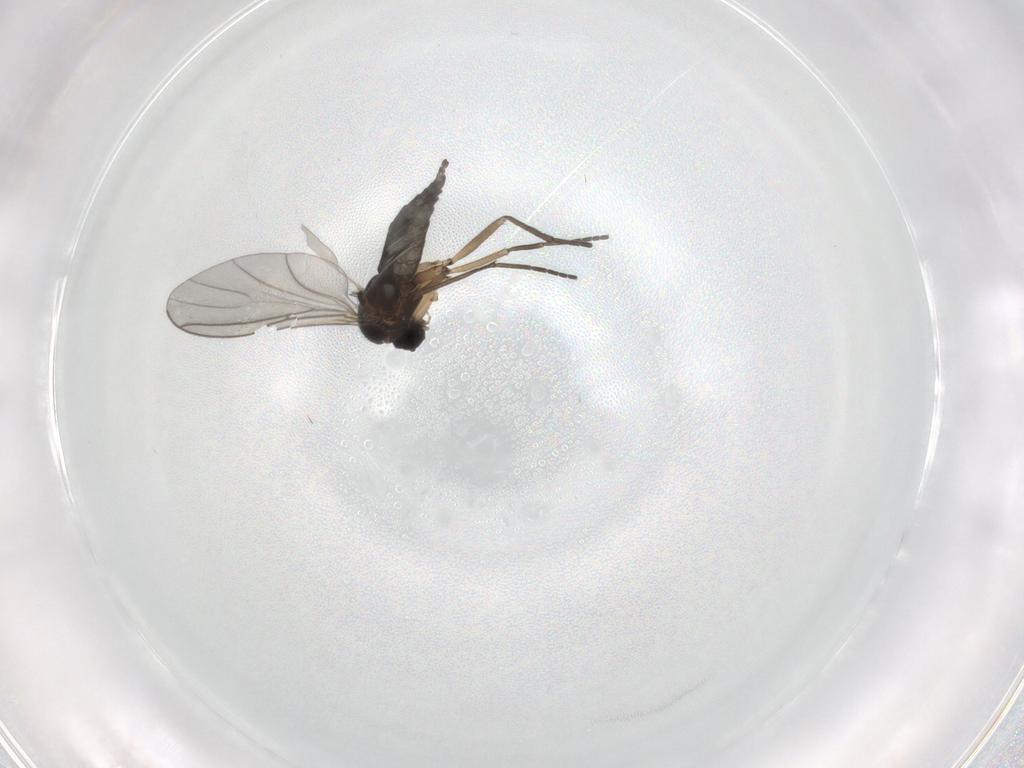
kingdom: Animalia
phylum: Arthropoda
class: Insecta
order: Diptera
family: Sciaridae
